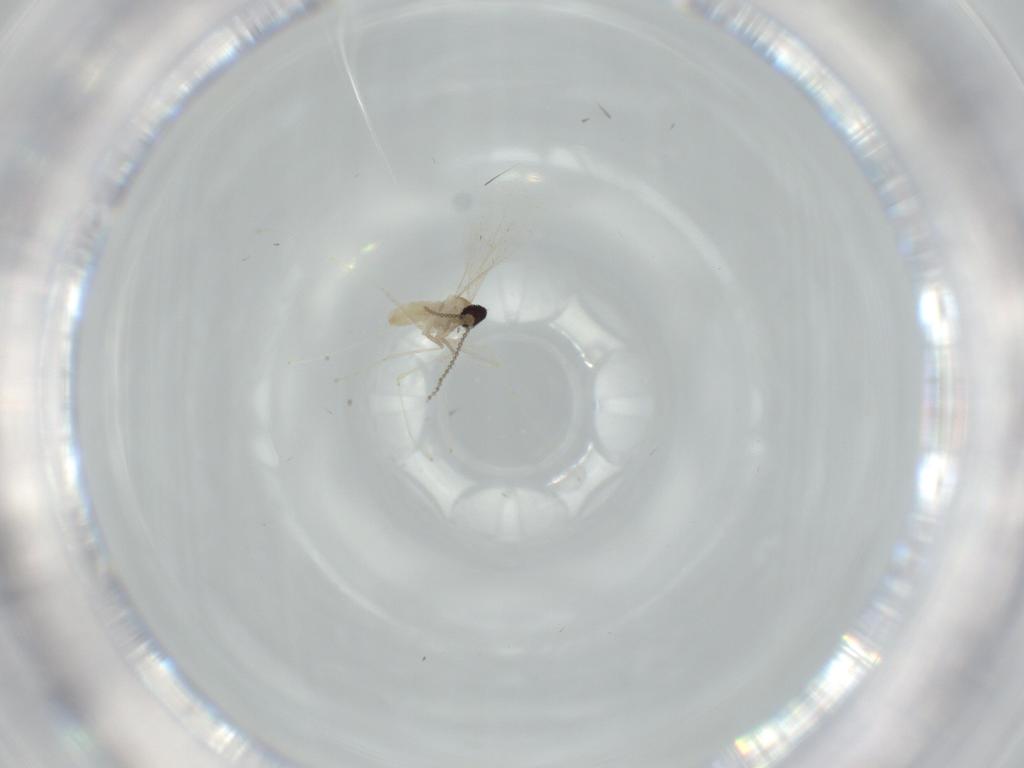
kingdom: Animalia
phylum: Arthropoda
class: Insecta
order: Diptera
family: Cecidomyiidae
